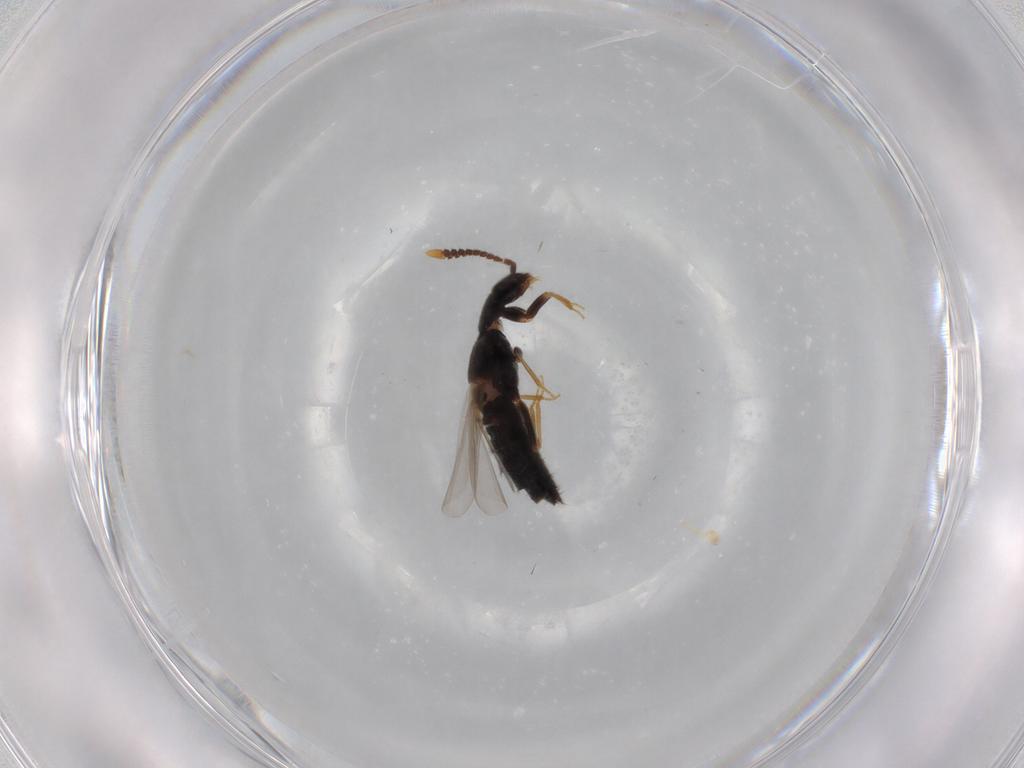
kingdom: Animalia
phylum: Arthropoda
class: Insecta
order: Coleoptera
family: Staphylinidae
